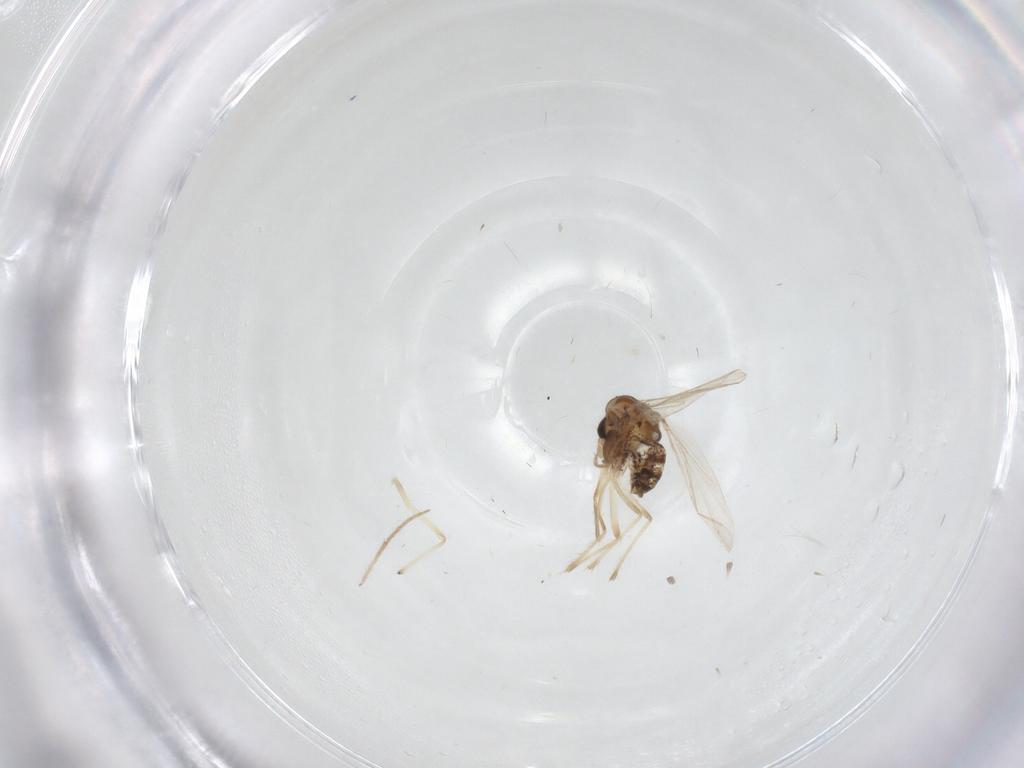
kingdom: Animalia
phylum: Arthropoda
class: Insecta
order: Diptera
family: Chironomidae
